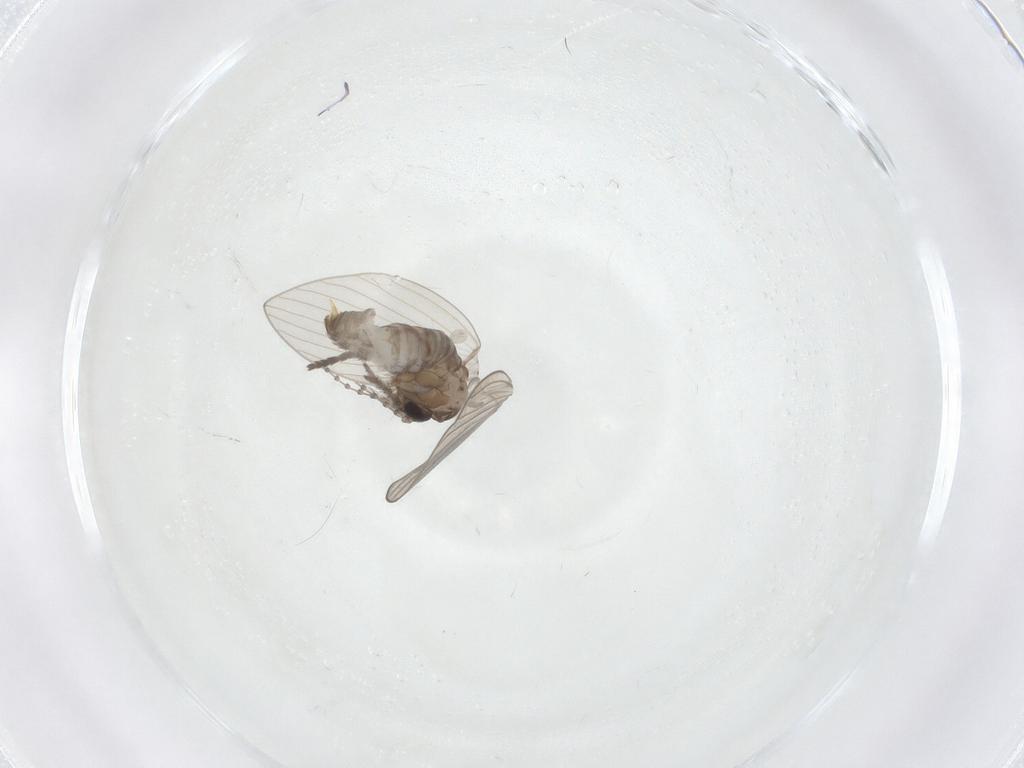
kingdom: Animalia
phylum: Arthropoda
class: Insecta
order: Diptera
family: Psychodidae
